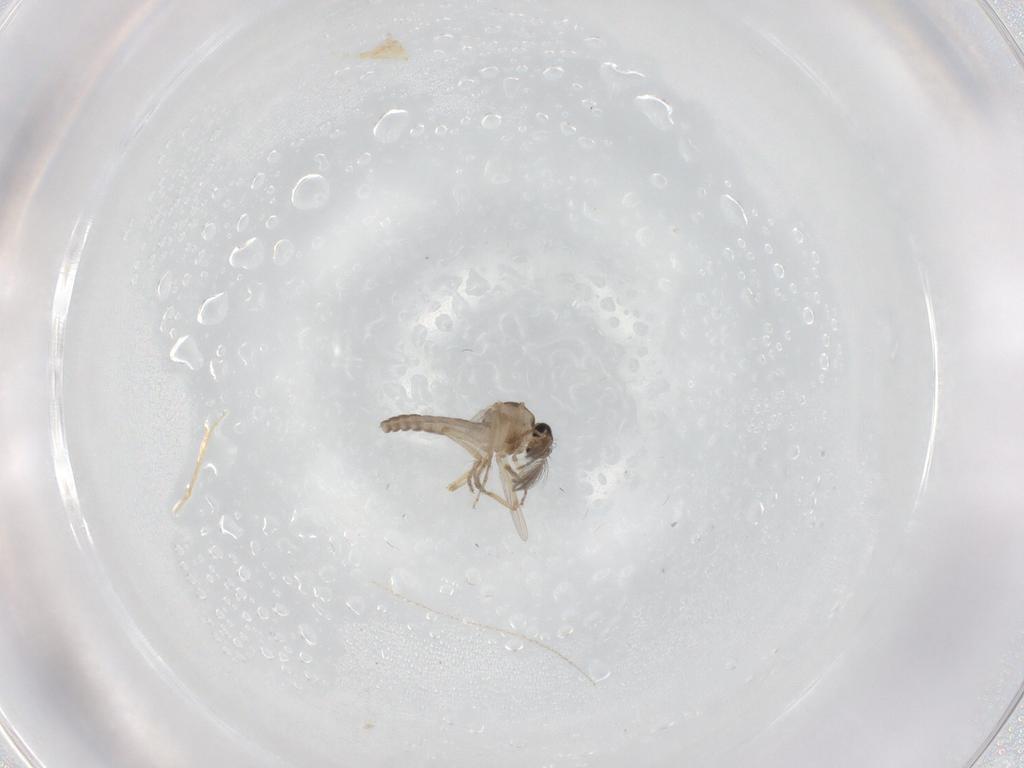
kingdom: Animalia
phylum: Arthropoda
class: Insecta
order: Diptera
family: Ceratopogonidae
